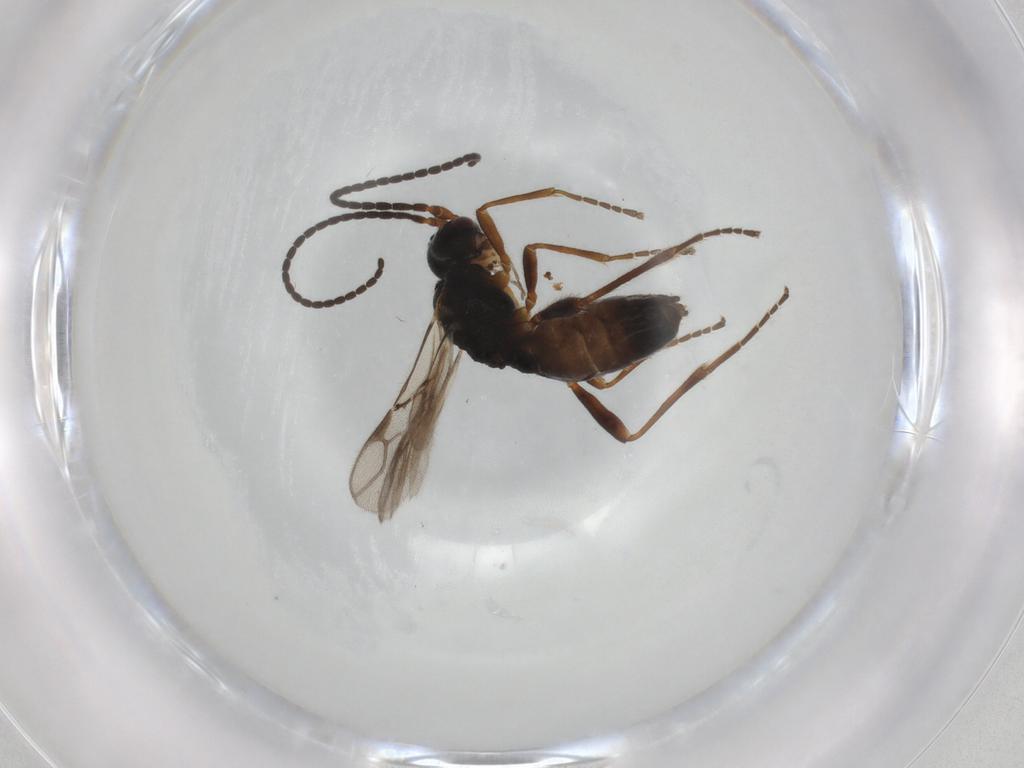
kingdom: Animalia
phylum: Arthropoda
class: Insecta
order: Hymenoptera
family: Braconidae
